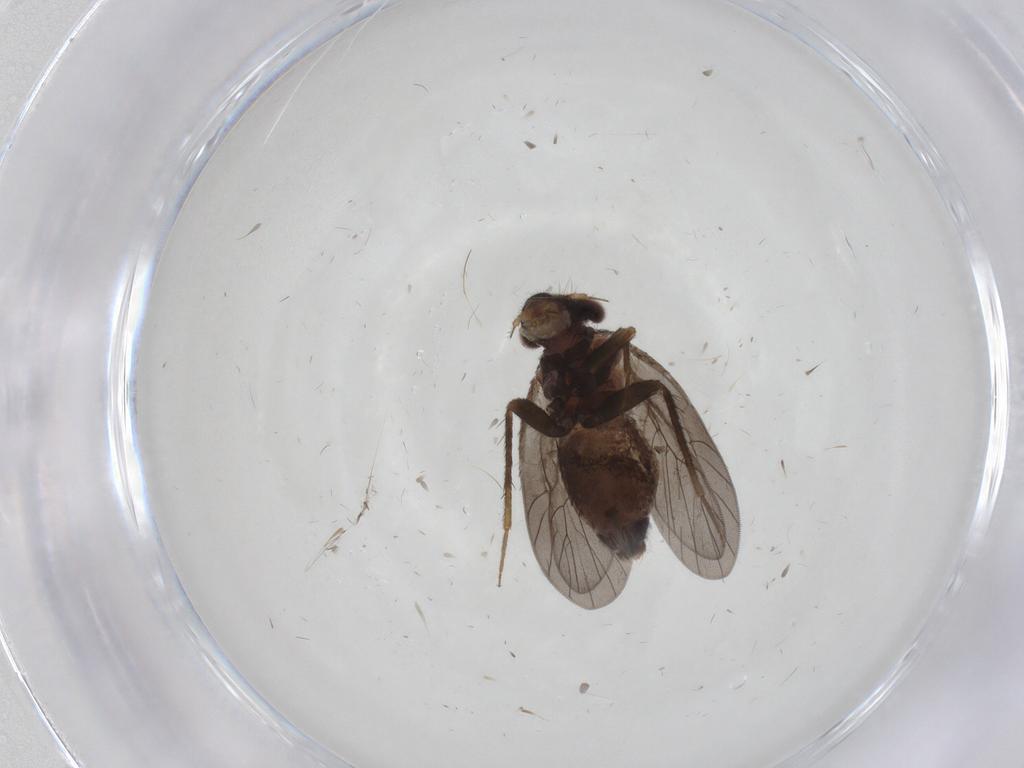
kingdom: Animalia
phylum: Arthropoda
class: Insecta
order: Psocodea
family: Lepidopsocidae
